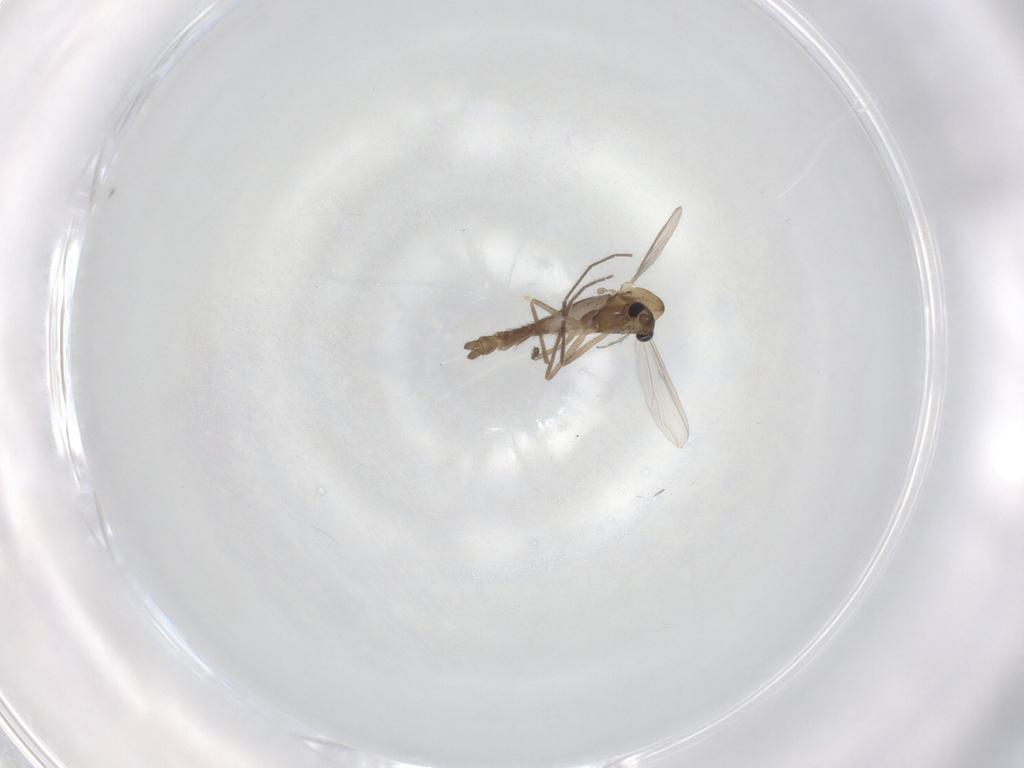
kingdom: Animalia
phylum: Arthropoda
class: Insecta
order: Diptera
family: Chironomidae
